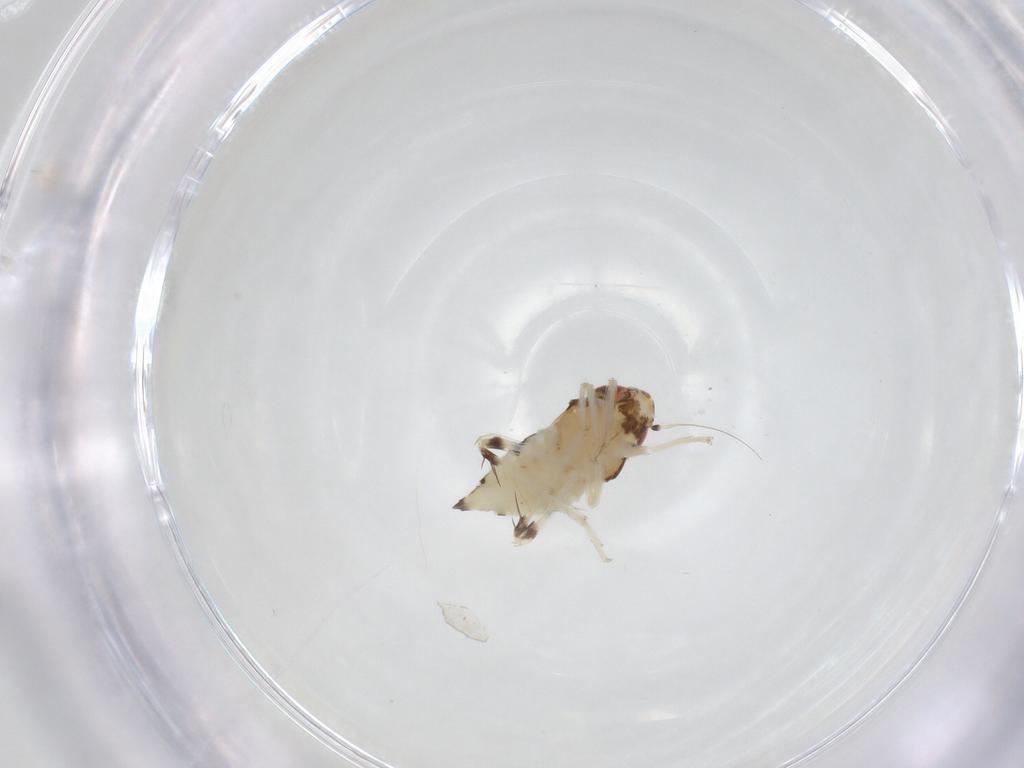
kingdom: Animalia
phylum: Arthropoda
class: Insecta
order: Hemiptera
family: Cicadellidae
